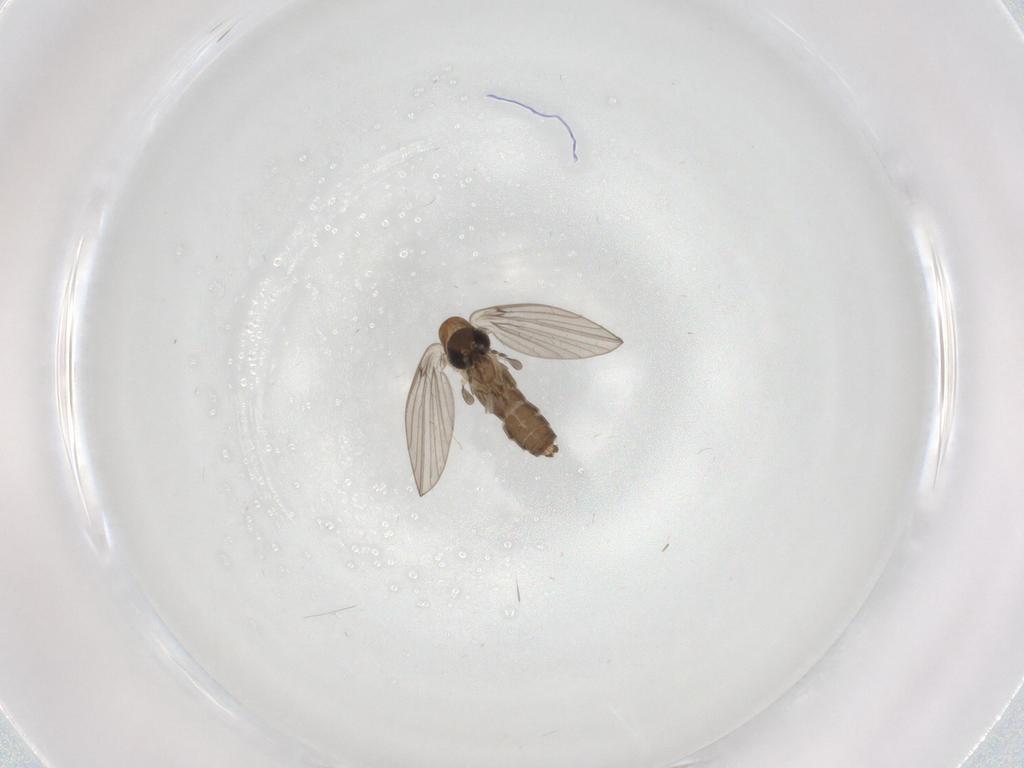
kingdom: Animalia
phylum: Arthropoda
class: Insecta
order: Diptera
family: Psychodidae
